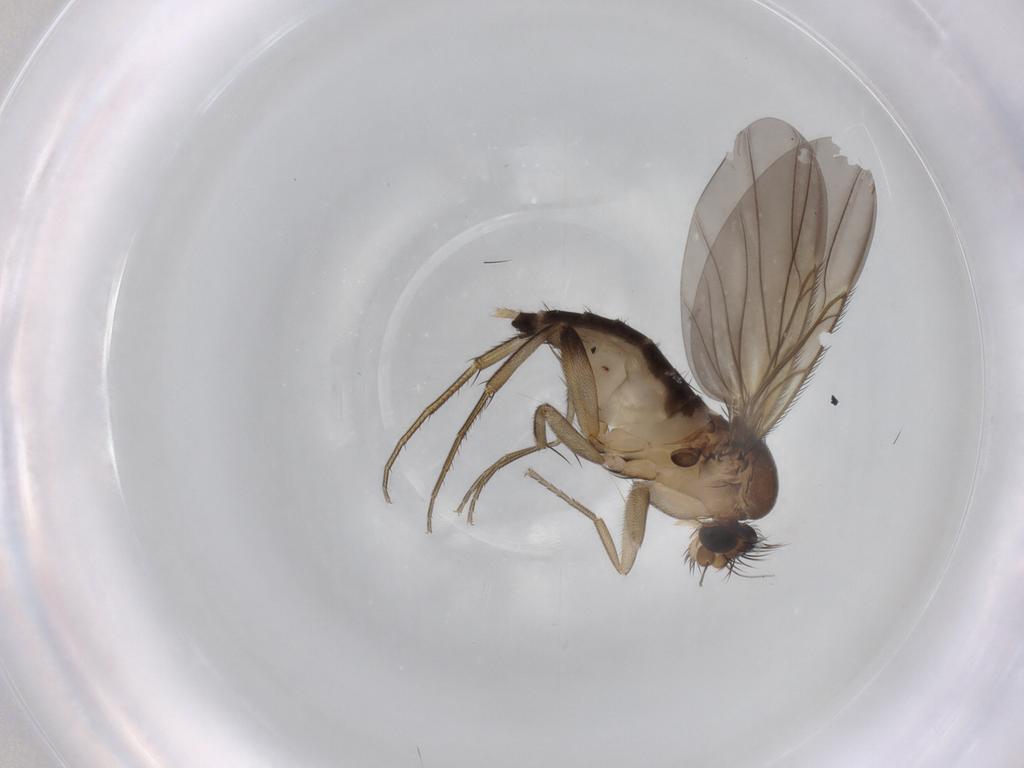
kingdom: Animalia
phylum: Arthropoda
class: Insecta
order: Diptera
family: Phoridae
